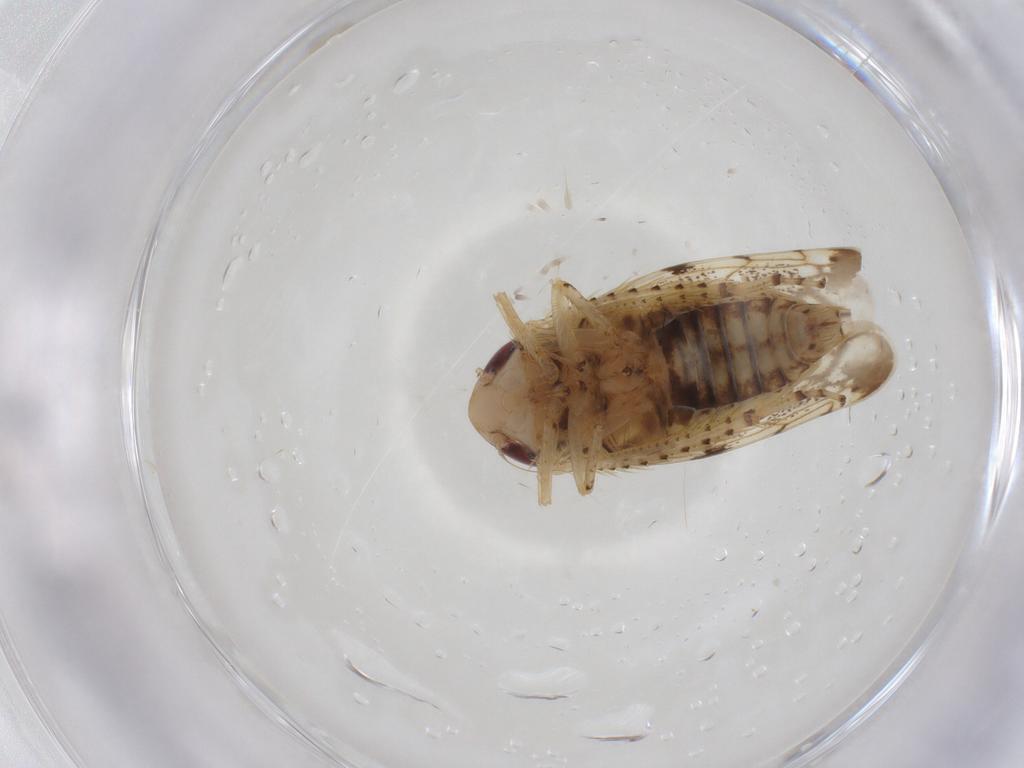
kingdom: Animalia
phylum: Arthropoda
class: Insecta
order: Hemiptera
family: Cicadellidae
